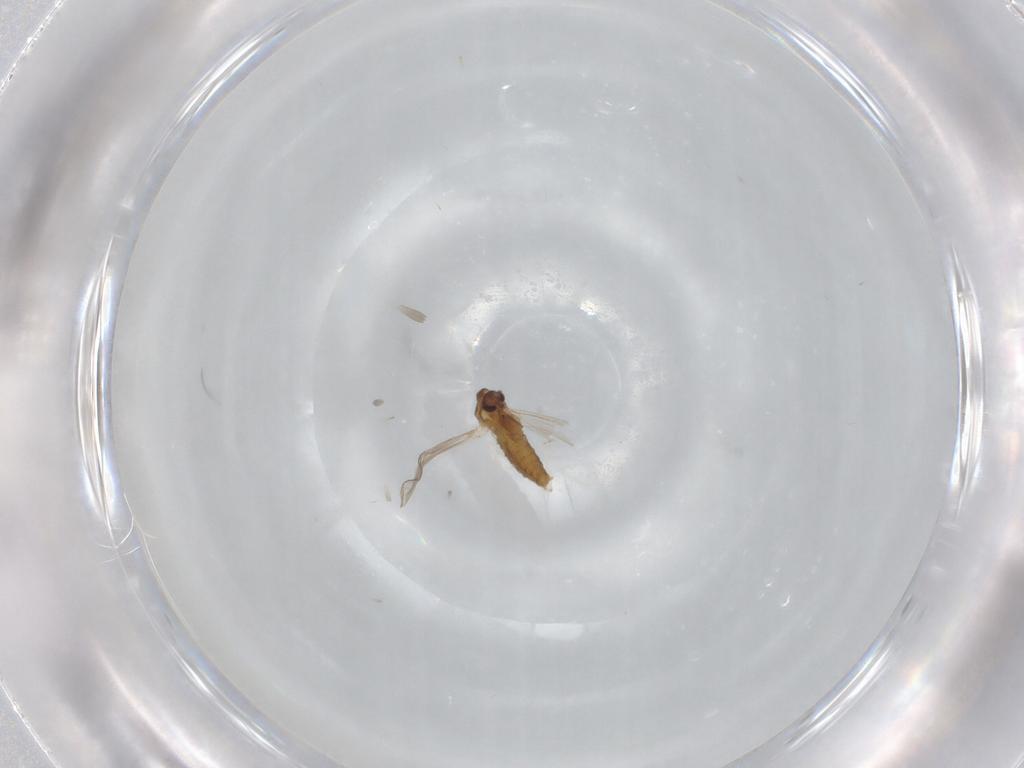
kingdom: Animalia
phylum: Arthropoda
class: Insecta
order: Diptera
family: Chironomidae
